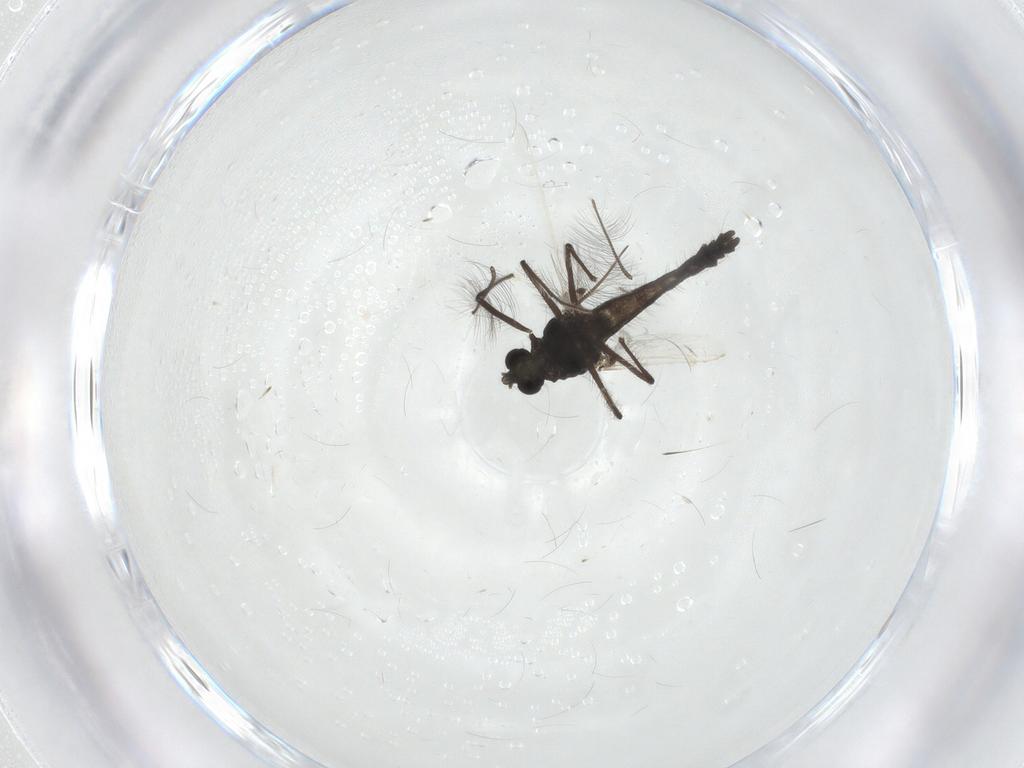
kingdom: Animalia
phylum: Arthropoda
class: Insecta
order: Diptera
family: Chironomidae
